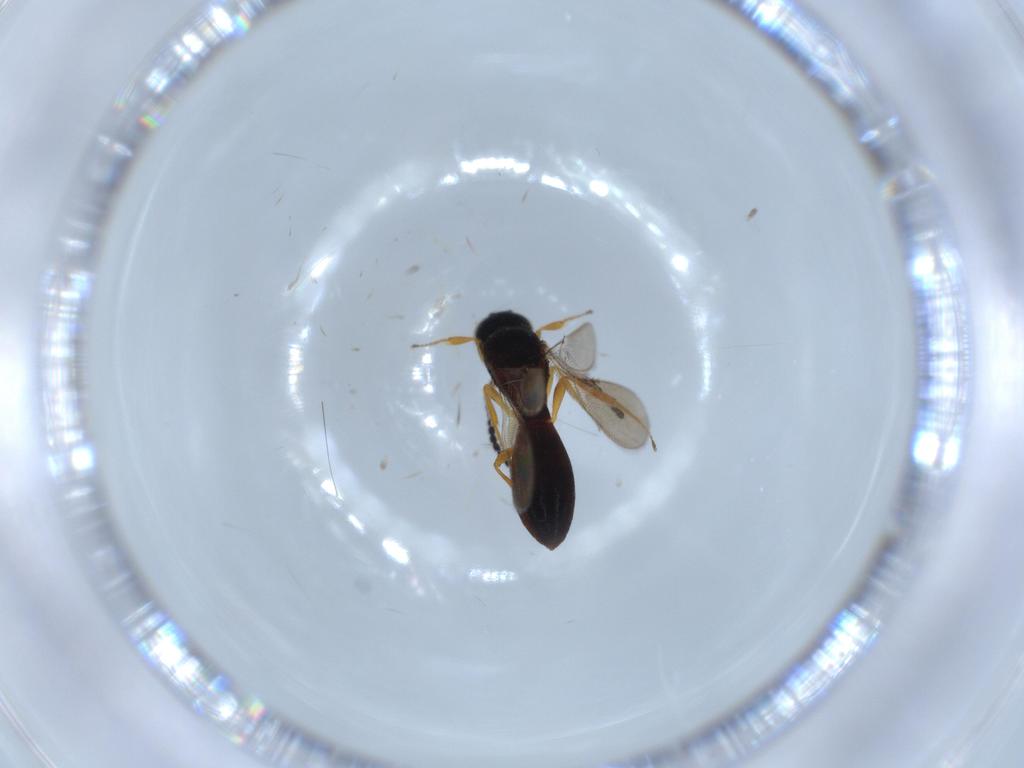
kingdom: Animalia
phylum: Arthropoda
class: Insecta
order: Hymenoptera
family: Scelionidae
